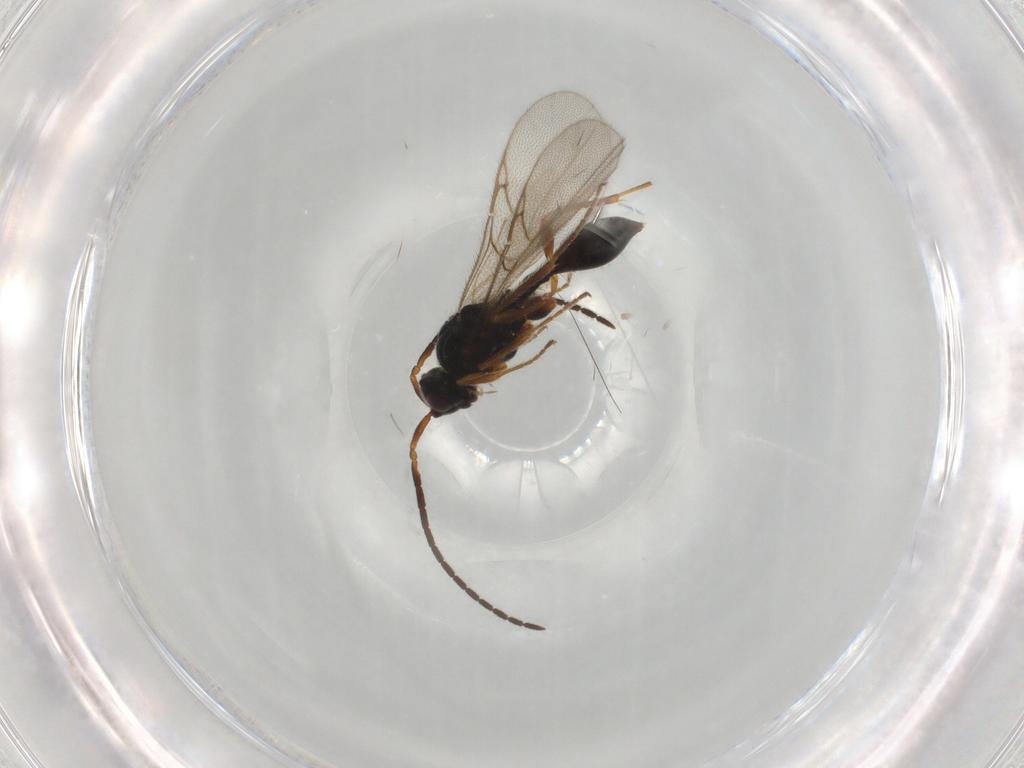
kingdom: Animalia
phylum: Arthropoda
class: Insecta
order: Hymenoptera
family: Diapriidae
